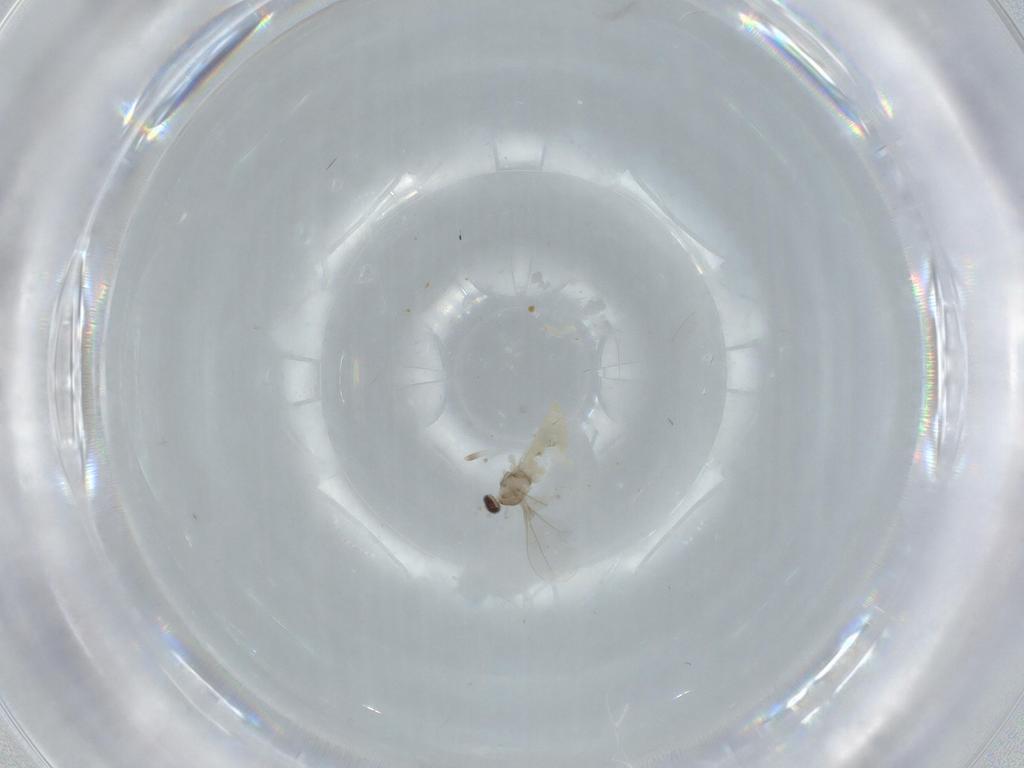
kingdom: Animalia
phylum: Arthropoda
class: Insecta
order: Diptera
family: Cecidomyiidae
